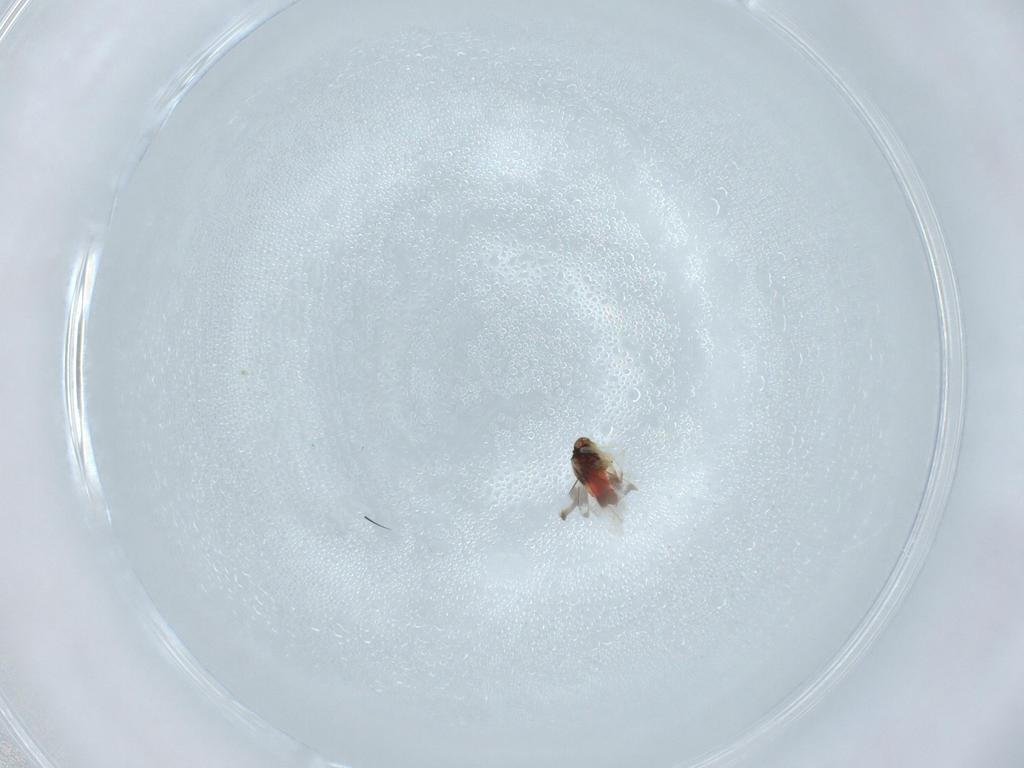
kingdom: Animalia
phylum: Arthropoda
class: Insecta
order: Hemiptera
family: Aleyrodidae
